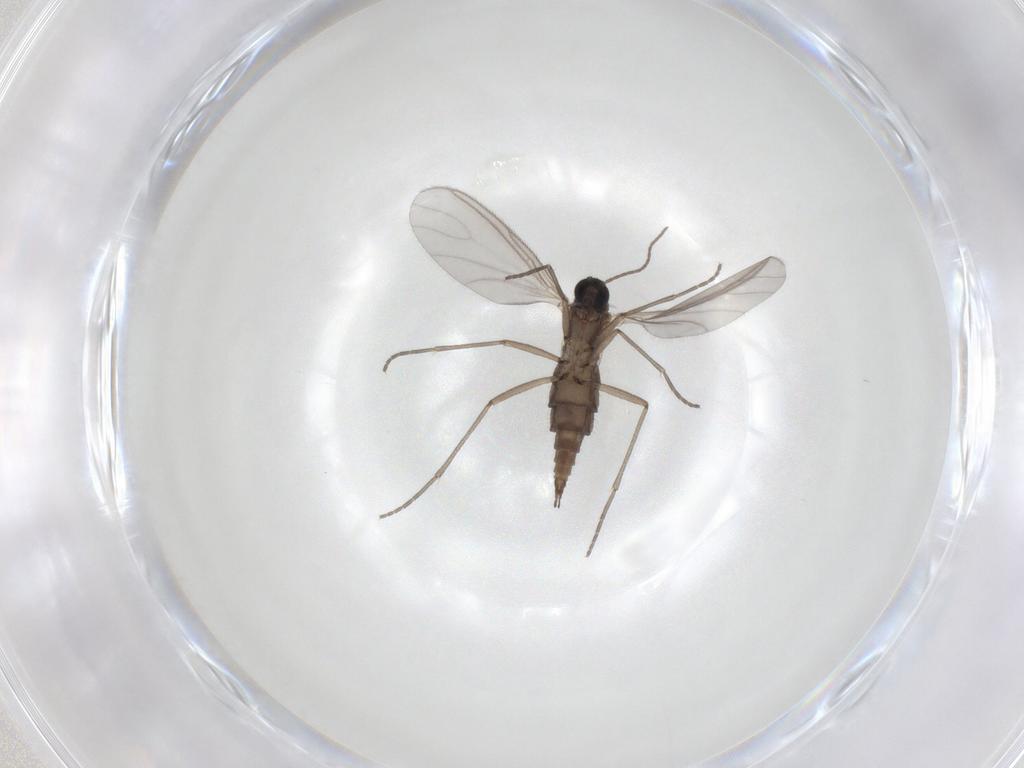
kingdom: Animalia
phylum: Arthropoda
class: Insecta
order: Diptera
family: Sciaridae
